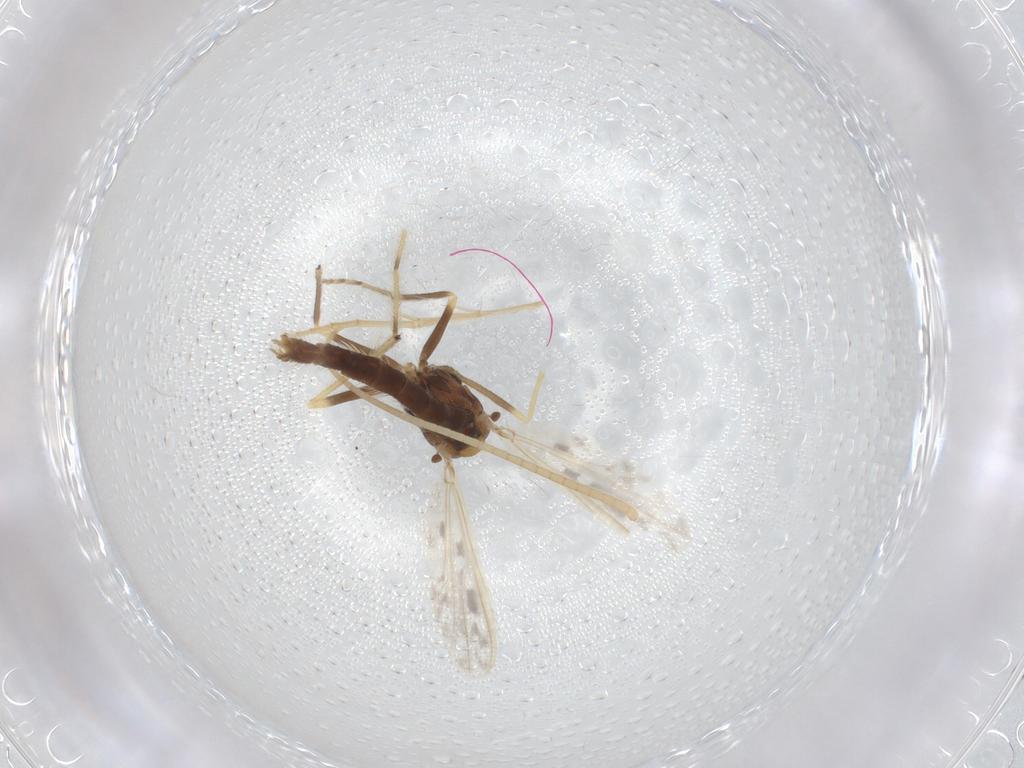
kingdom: Animalia
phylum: Arthropoda
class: Insecta
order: Diptera
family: Chironomidae
